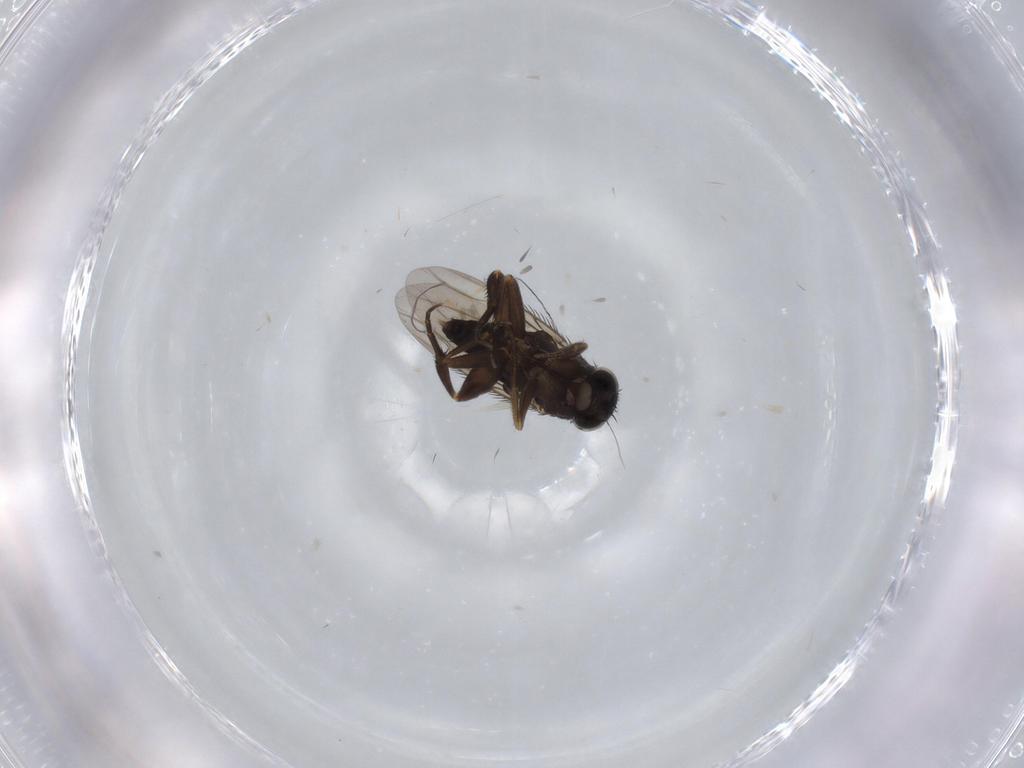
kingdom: Animalia
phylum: Arthropoda
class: Insecta
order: Diptera
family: Phoridae
